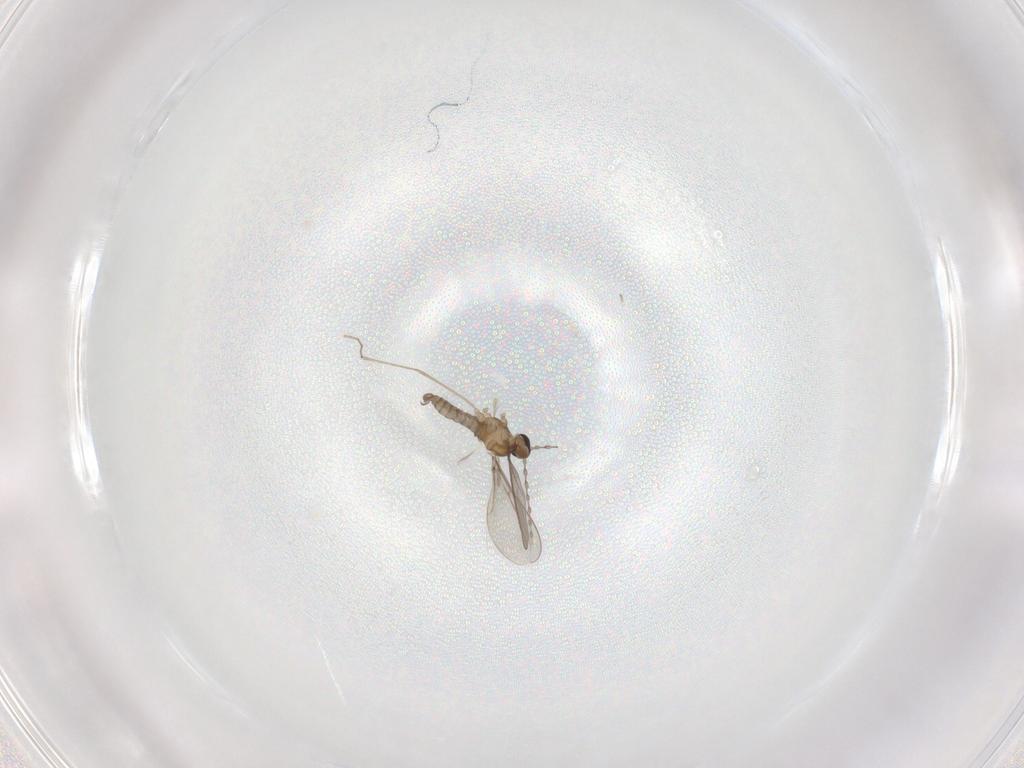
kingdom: Animalia
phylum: Arthropoda
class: Insecta
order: Diptera
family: Cecidomyiidae
